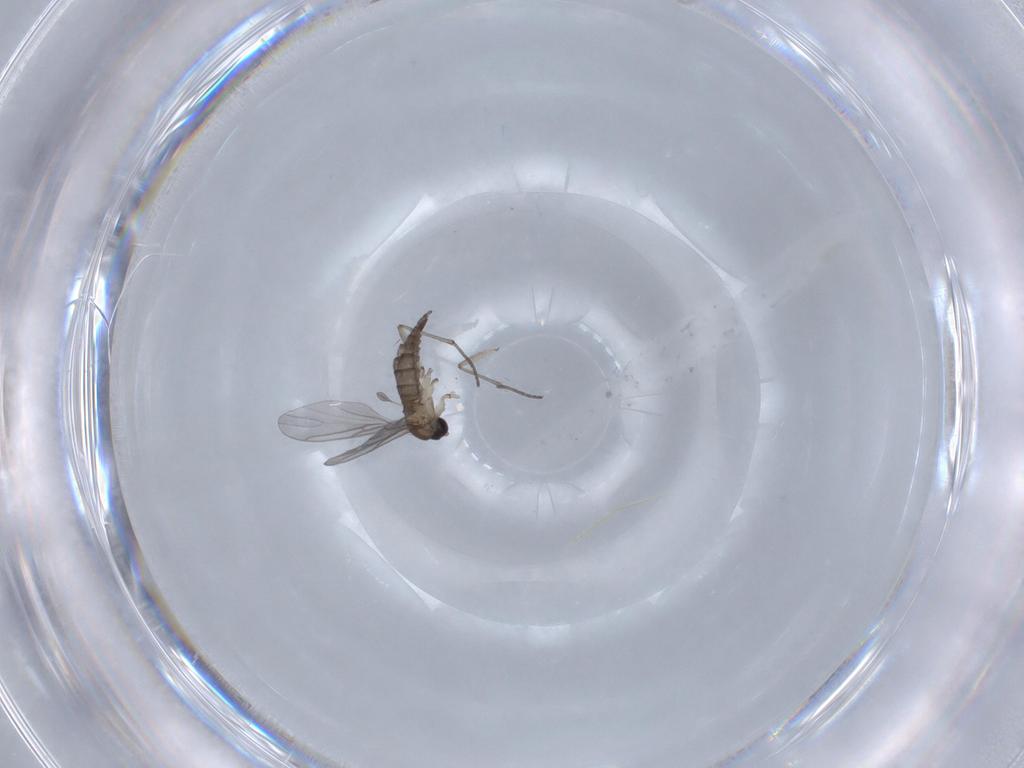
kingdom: Animalia
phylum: Arthropoda
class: Insecta
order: Diptera
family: Sciaridae
